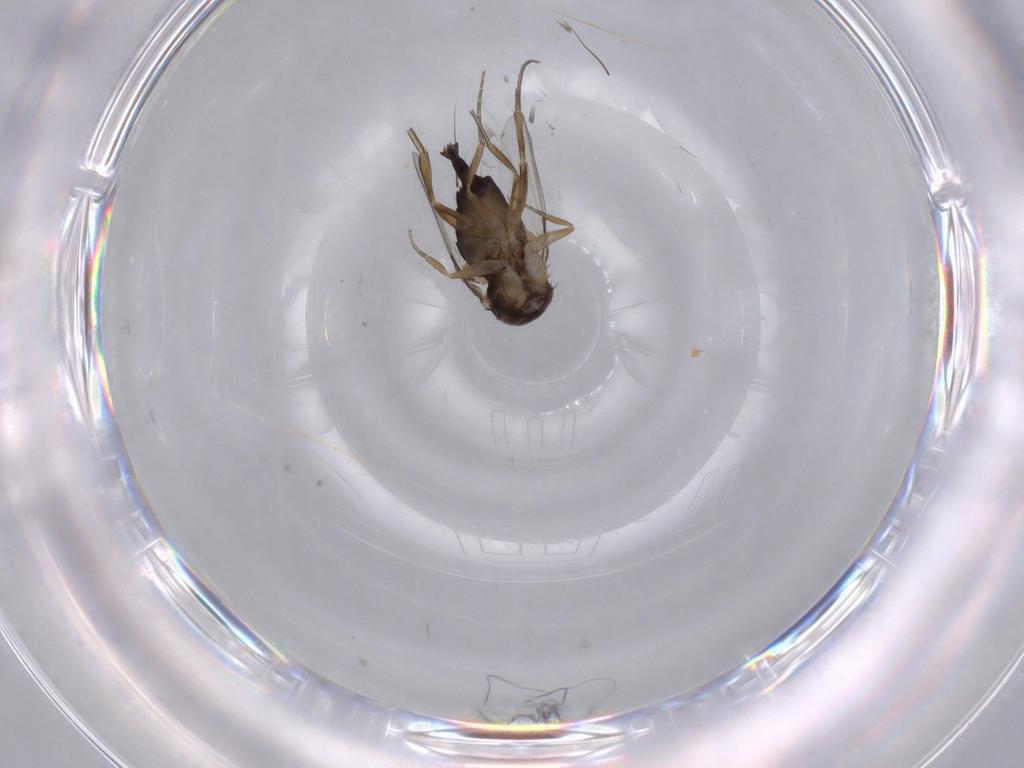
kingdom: Animalia
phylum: Arthropoda
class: Insecta
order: Diptera
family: Phoridae
